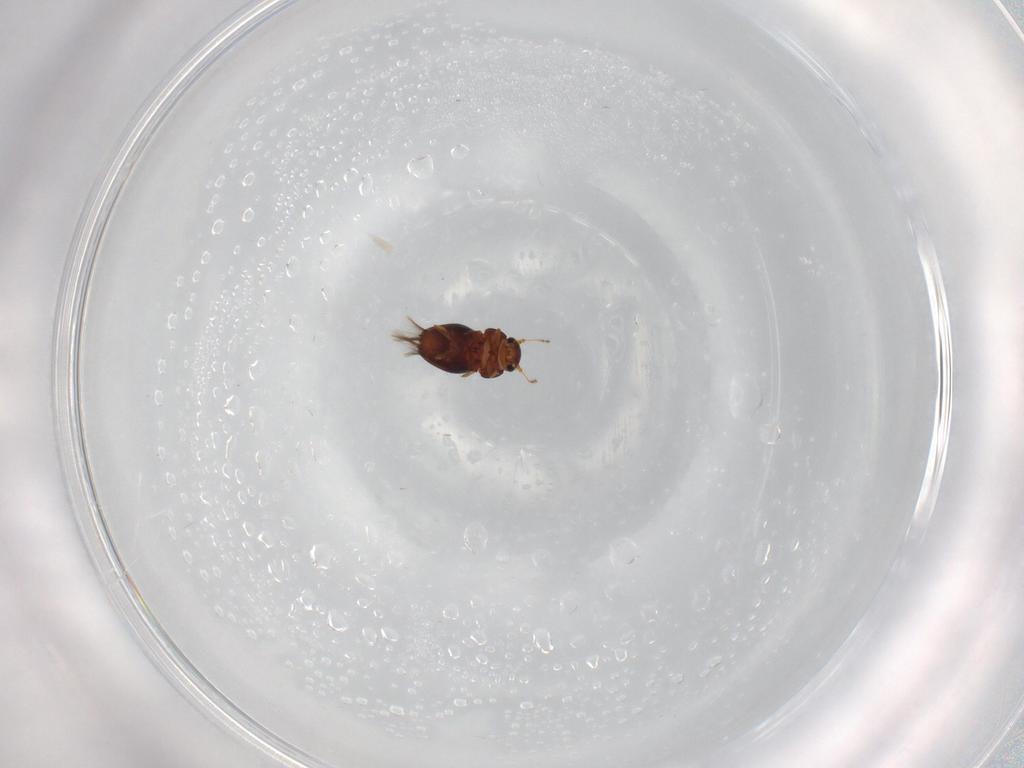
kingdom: Animalia
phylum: Arthropoda
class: Insecta
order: Coleoptera
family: Ptiliidae
